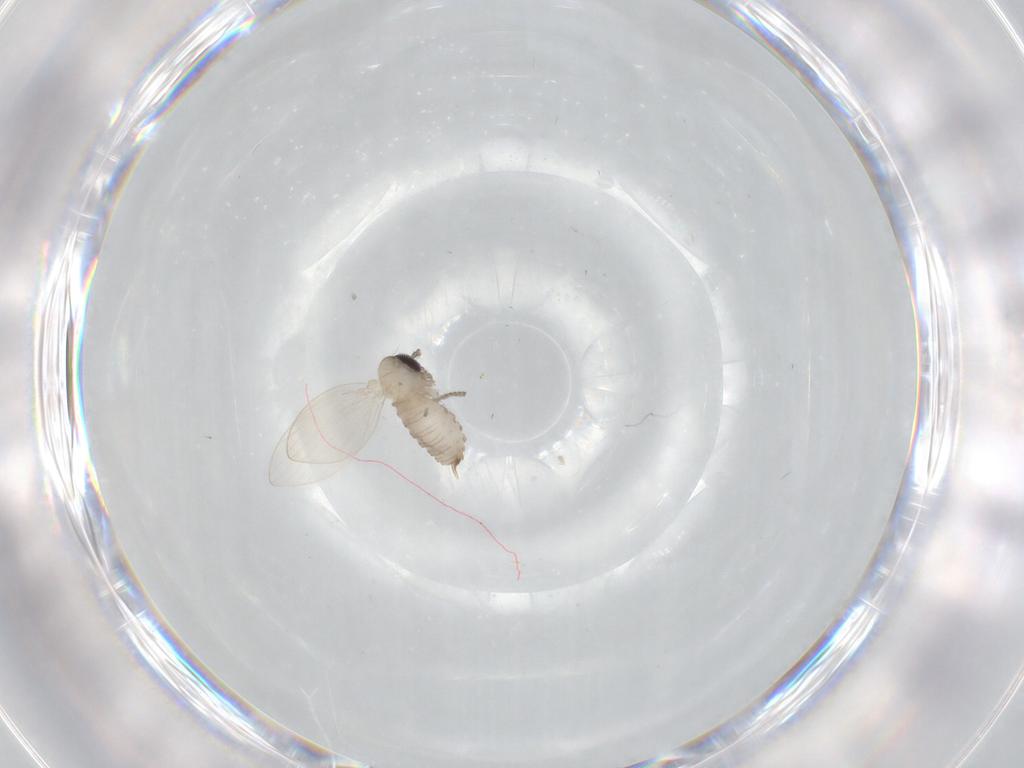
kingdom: Animalia
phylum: Arthropoda
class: Insecta
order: Diptera
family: Psychodidae
